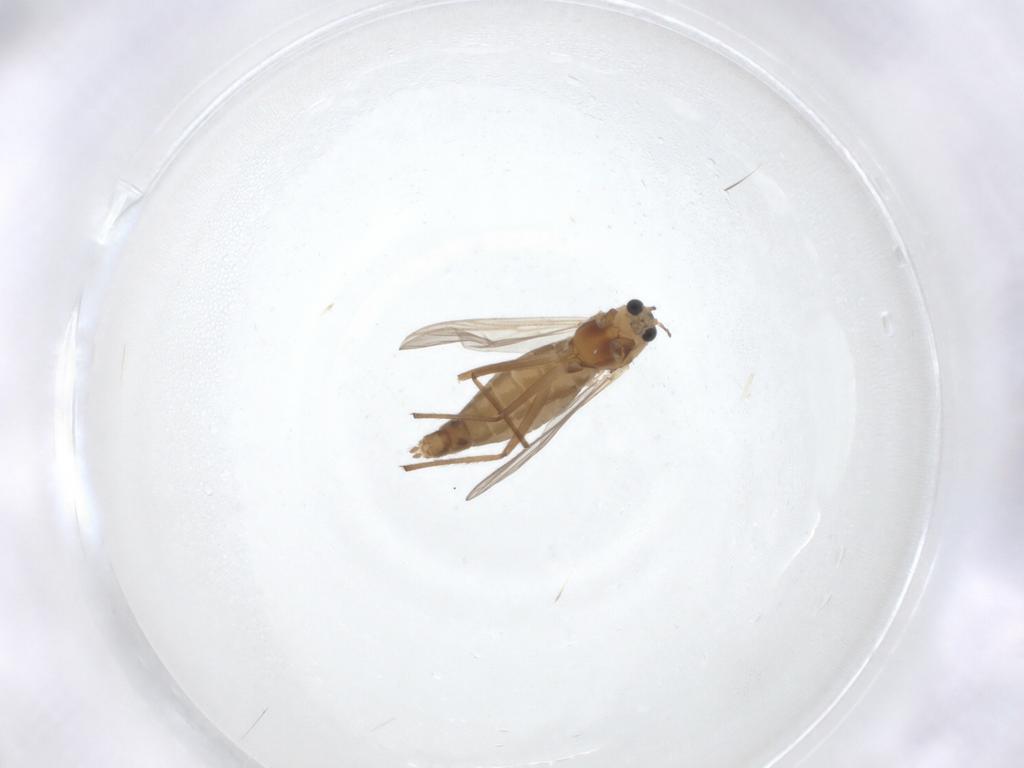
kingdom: Animalia
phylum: Arthropoda
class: Insecta
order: Diptera
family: Chironomidae
